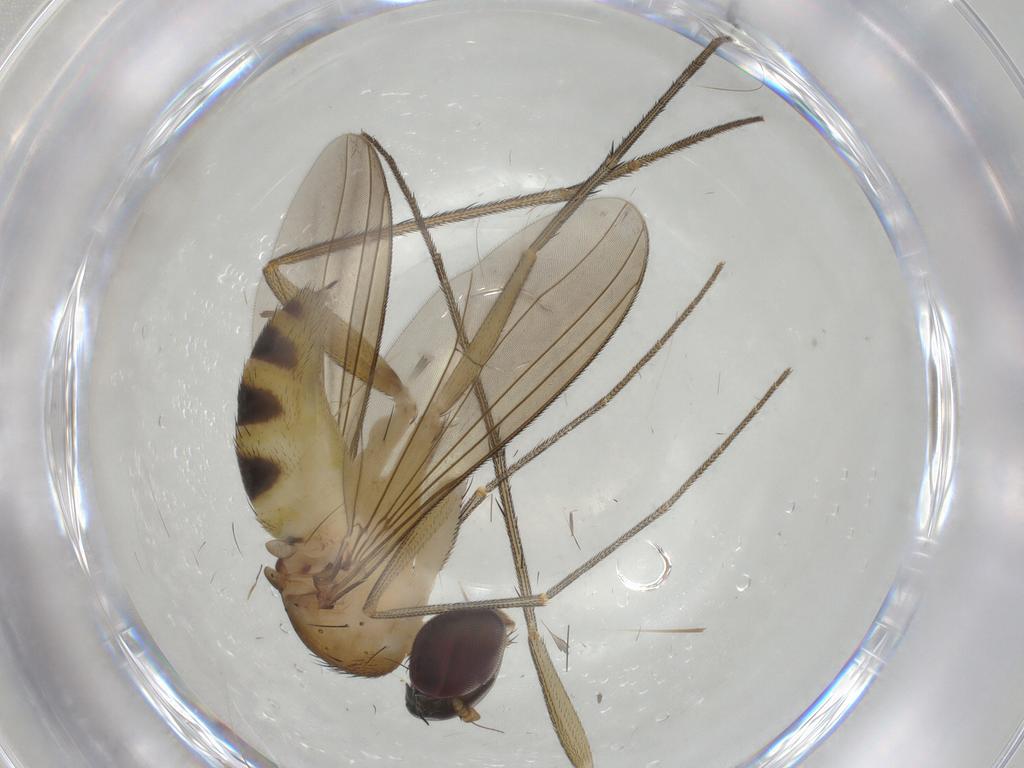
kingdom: Animalia
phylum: Arthropoda
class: Insecta
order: Diptera
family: Dolichopodidae
